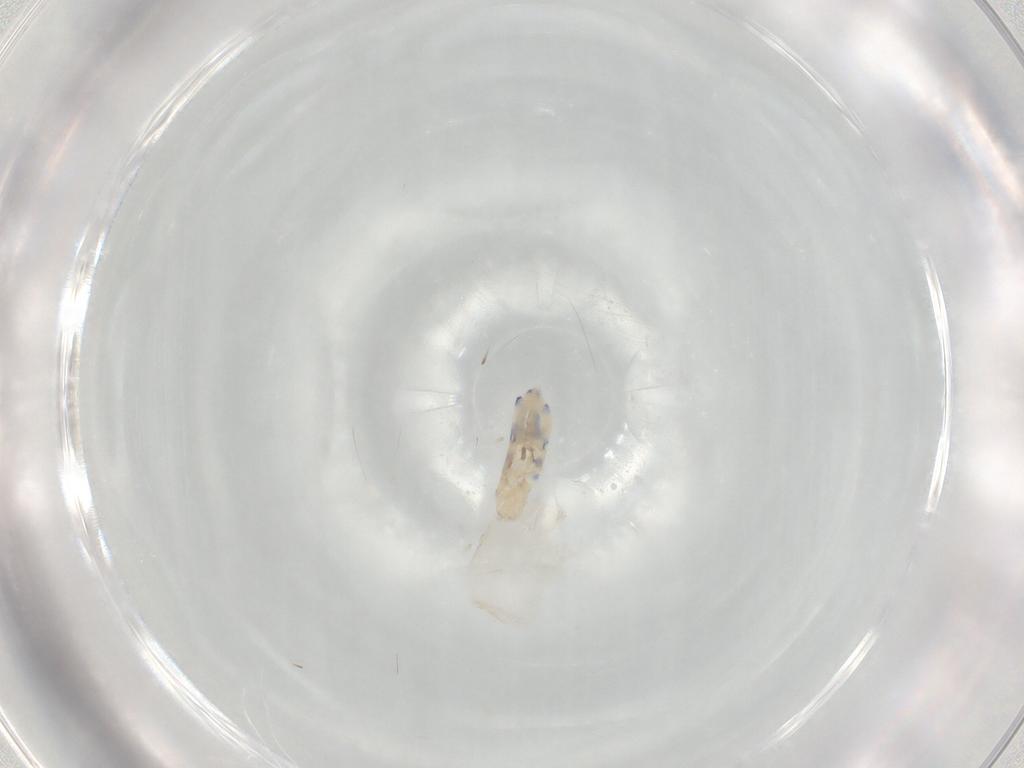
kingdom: Animalia
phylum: Arthropoda
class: Collembola
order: Entomobryomorpha
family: Entomobryidae
